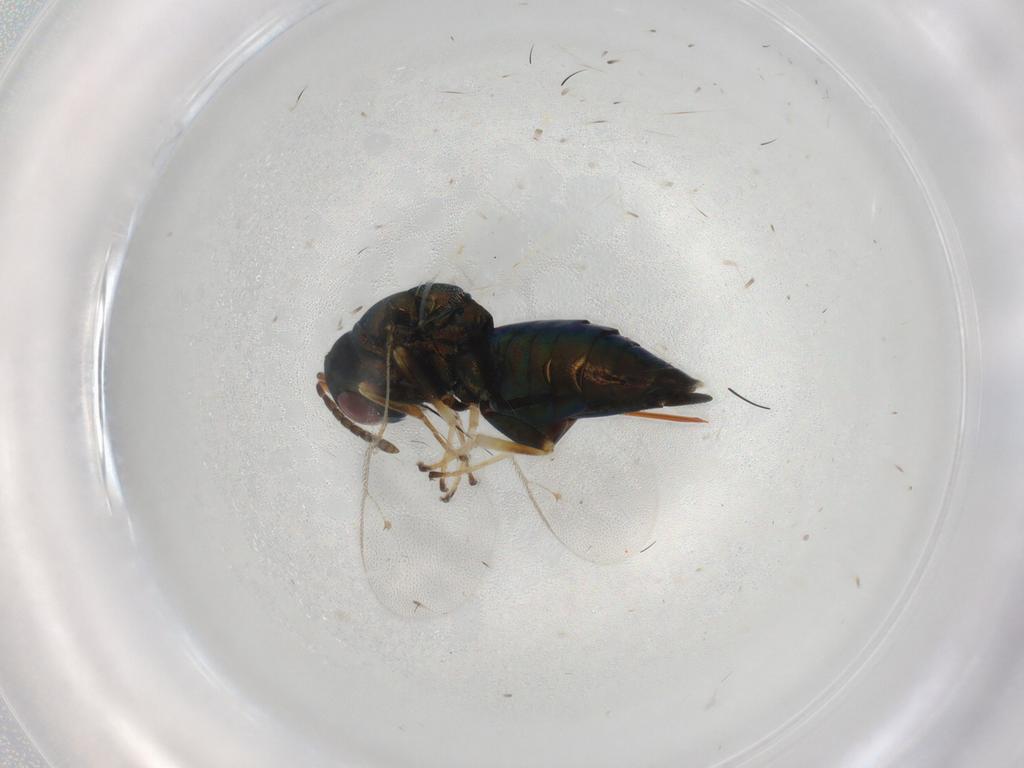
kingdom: Animalia
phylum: Arthropoda
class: Insecta
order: Hymenoptera
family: Pteromalidae
